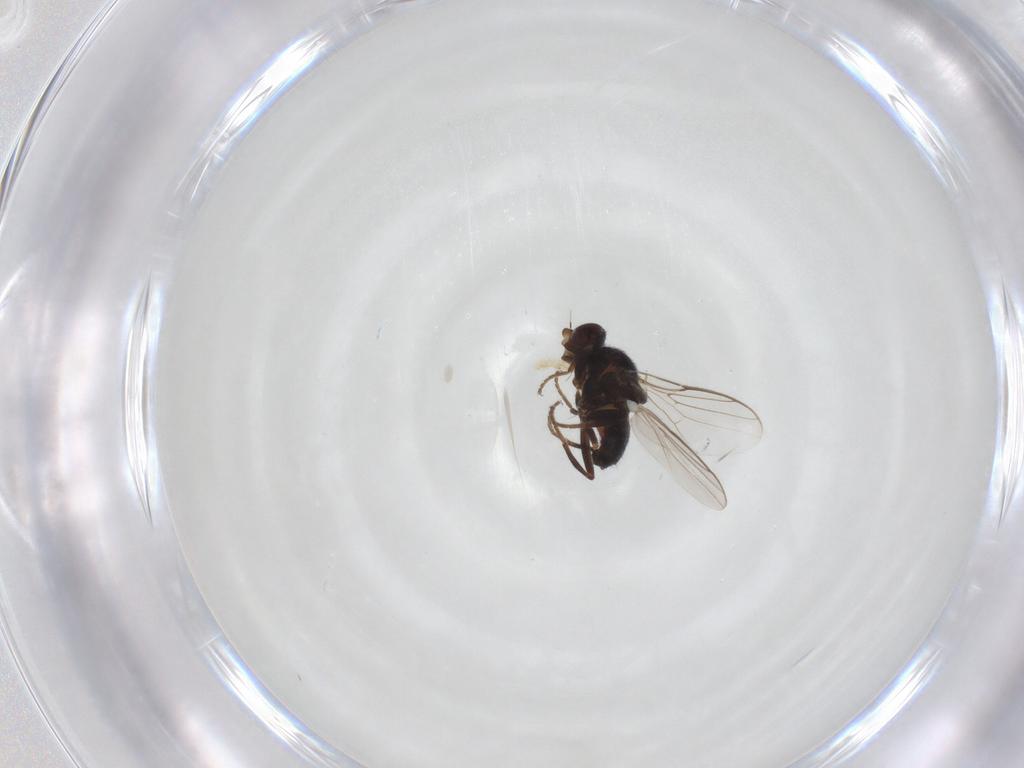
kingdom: Animalia
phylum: Arthropoda
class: Insecta
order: Diptera
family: Chloropidae
